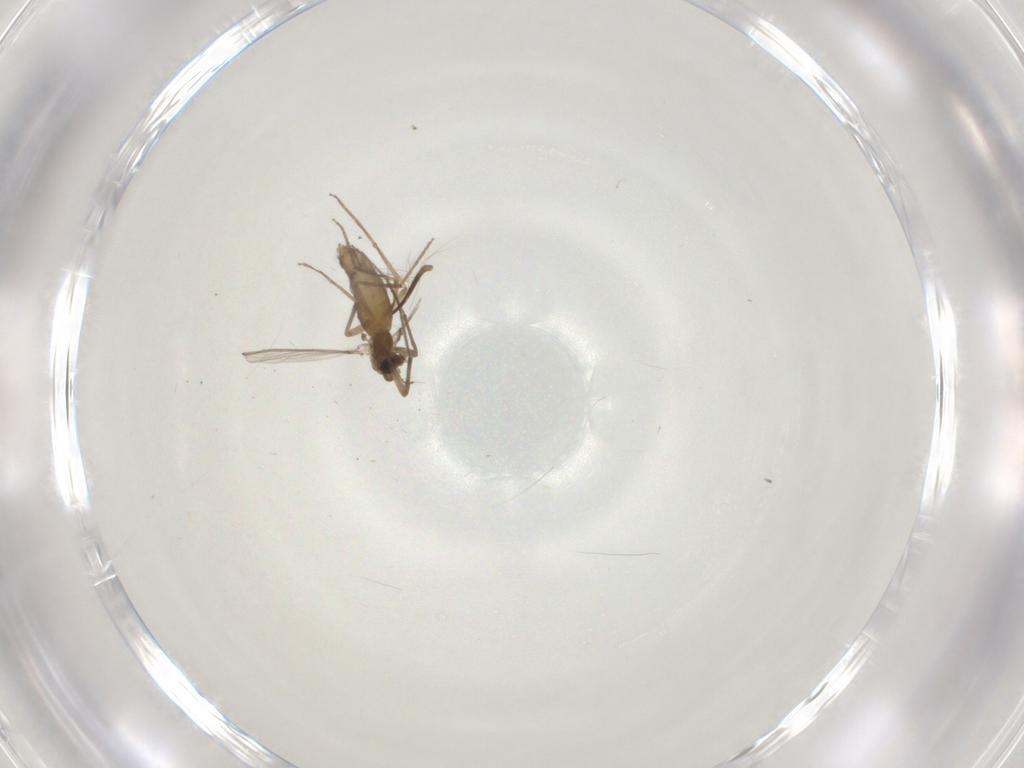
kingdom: Animalia
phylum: Arthropoda
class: Insecta
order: Diptera
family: Chironomidae
